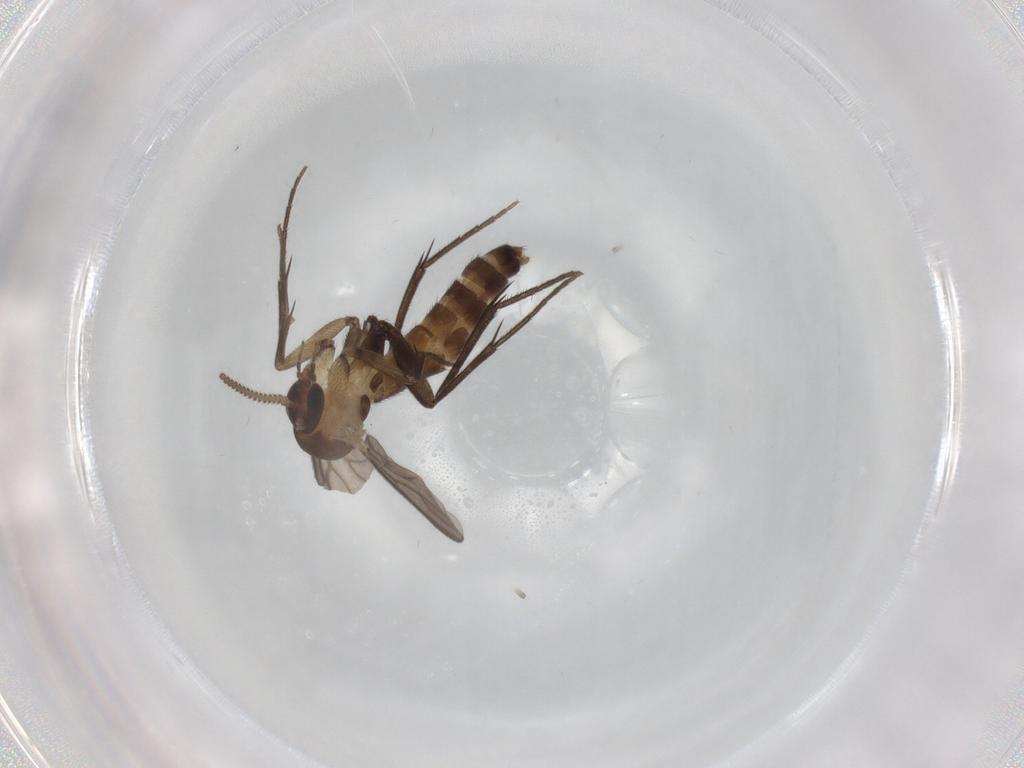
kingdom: Animalia
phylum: Arthropoda
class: Insecta
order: Diptera
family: Mycetophilidae
